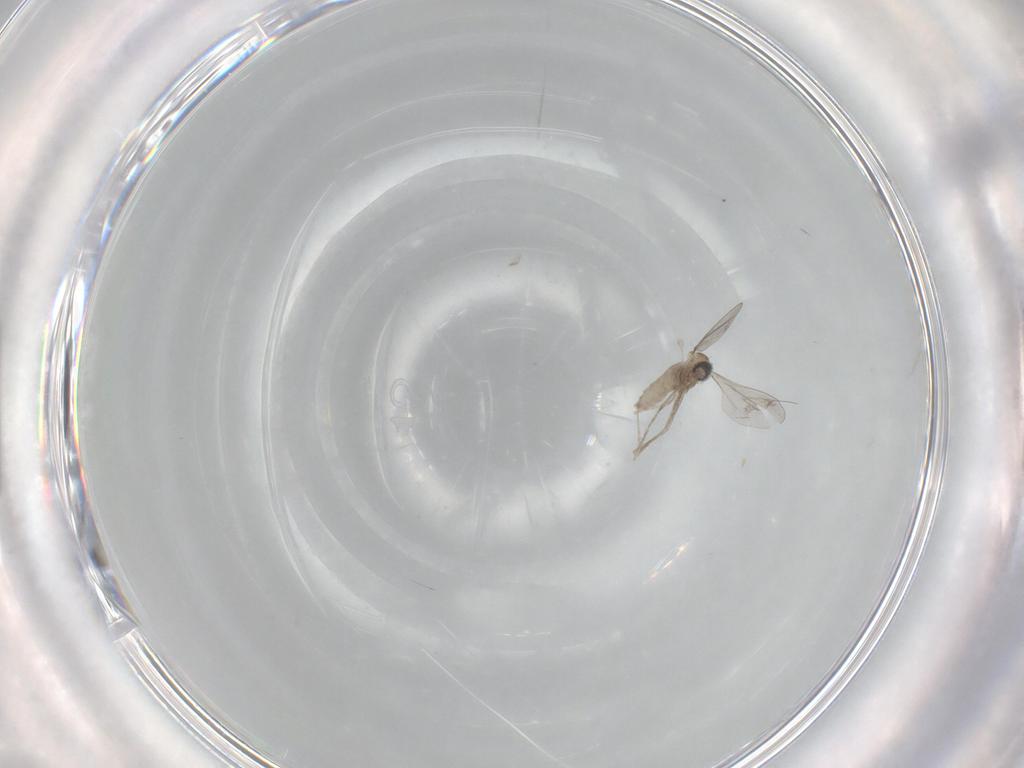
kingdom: Animalia
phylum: Arthropoda
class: Insecta
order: Diptera
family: Cecidomyiidae
